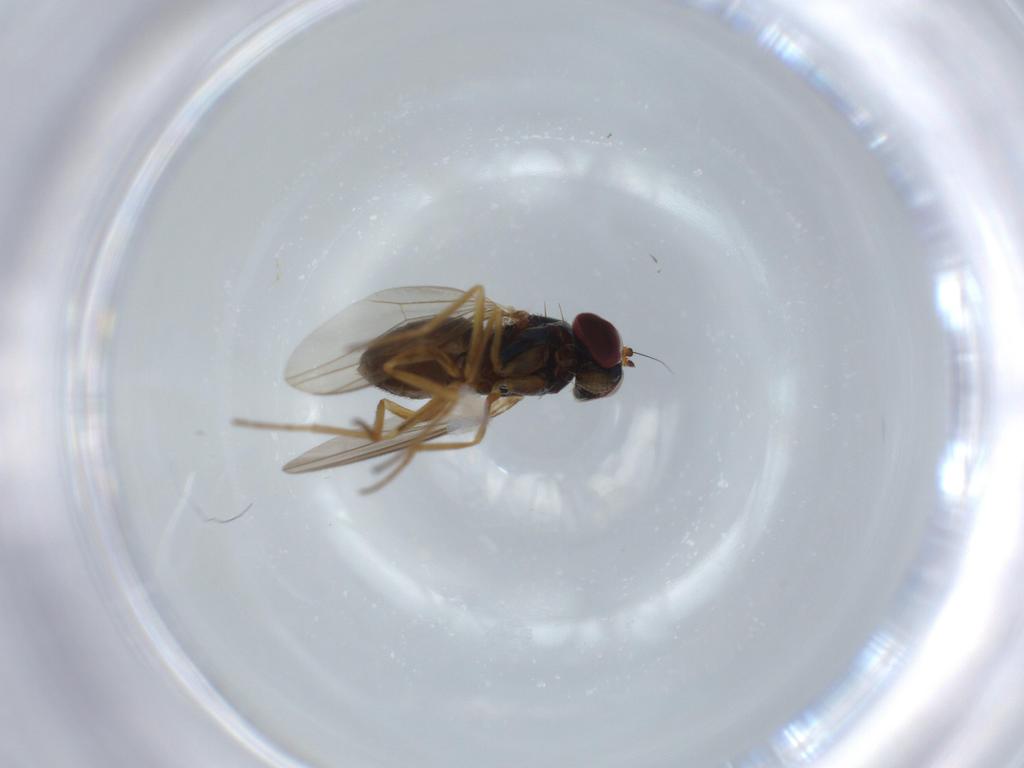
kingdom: Animalia
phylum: Arthropoda
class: Insecta
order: Diptera
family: Dolichopodidae
